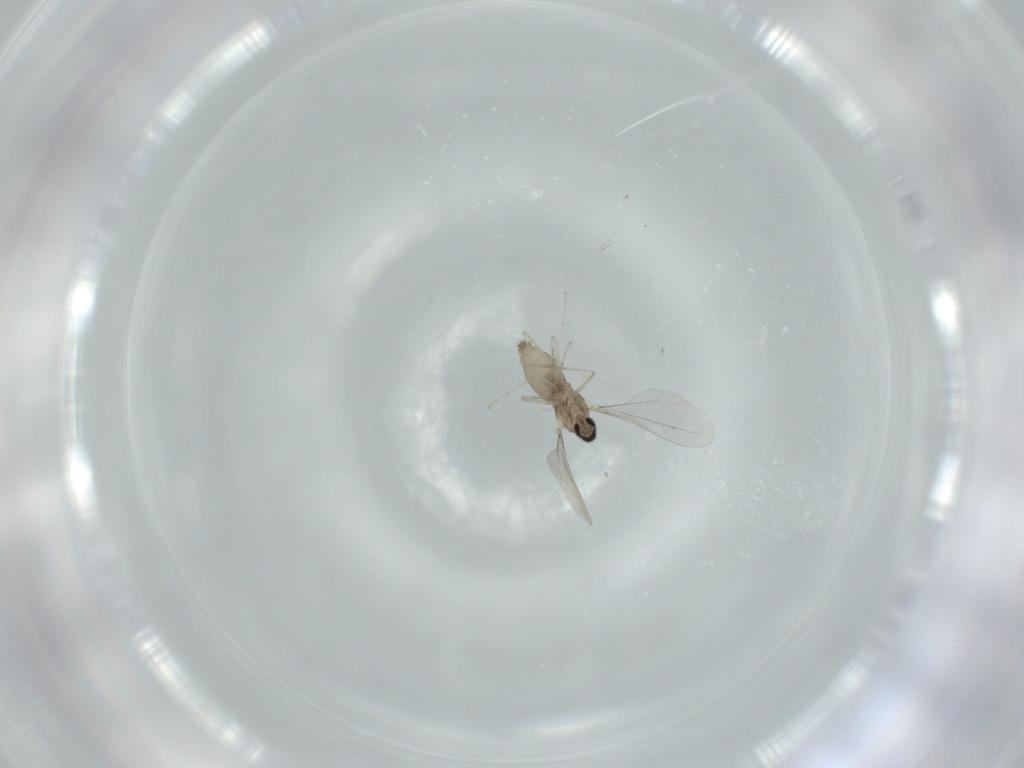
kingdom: Animalia
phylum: Arthropoda
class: Insecta
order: Diptera
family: Cecidomyiidae
